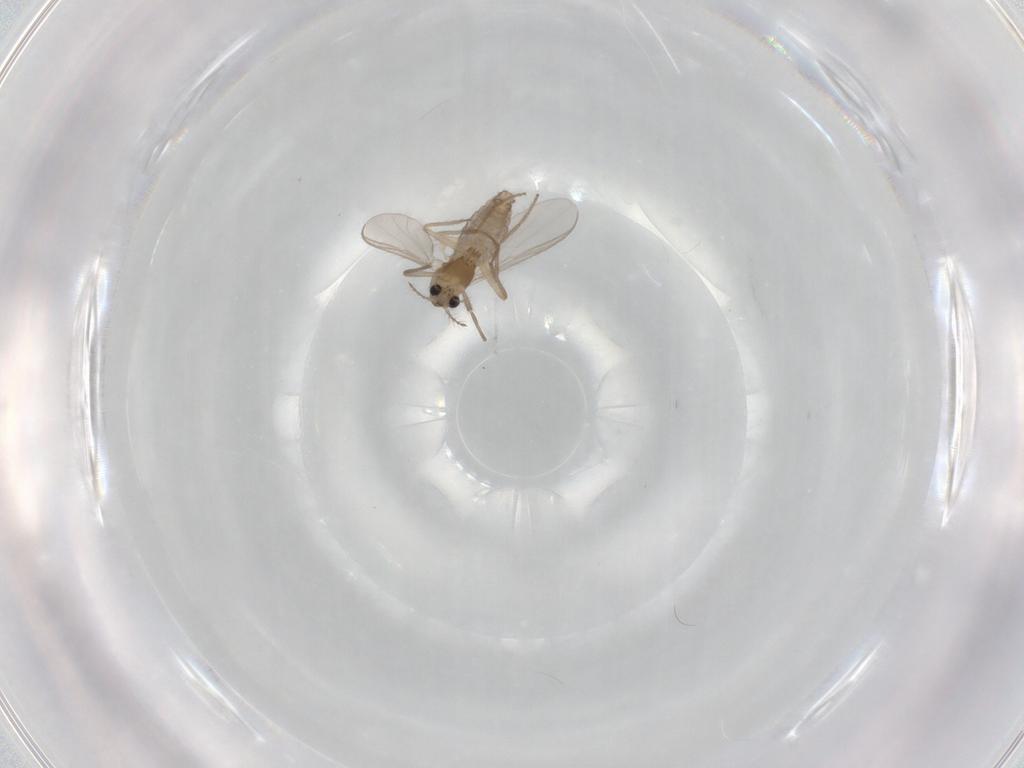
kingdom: Animalia
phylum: Arthropoda
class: Insecta
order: Diptera
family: Chironomidae
